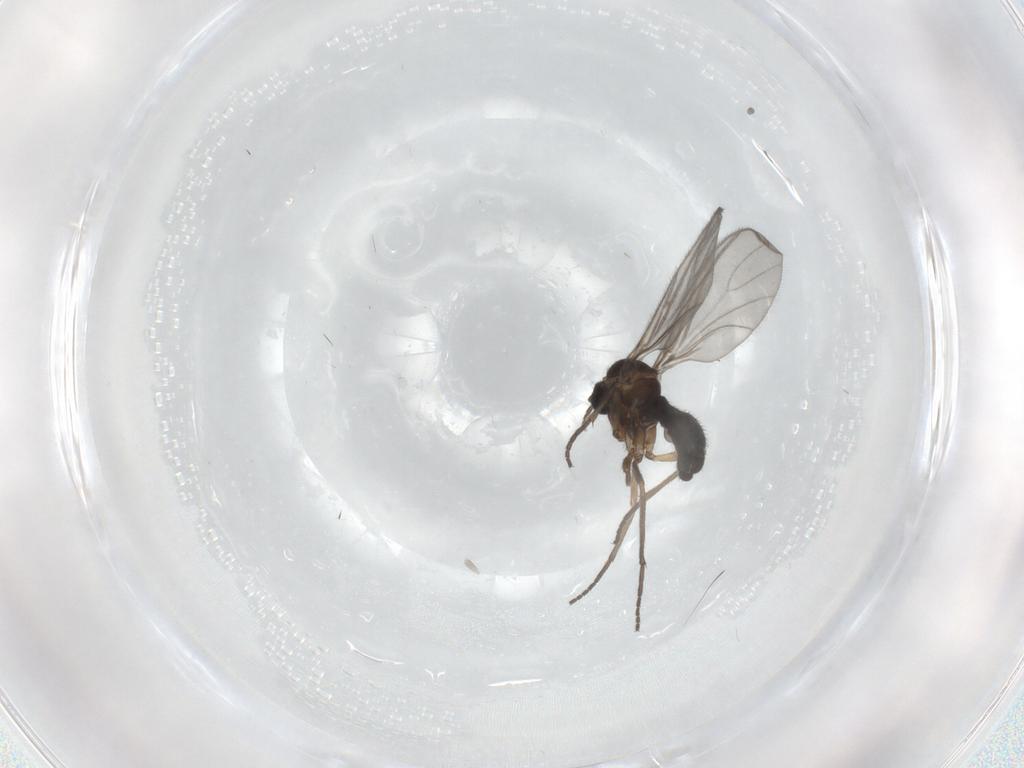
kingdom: Animalia
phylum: Arthropoda
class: Insecta
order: Diptera
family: Sciaridae
